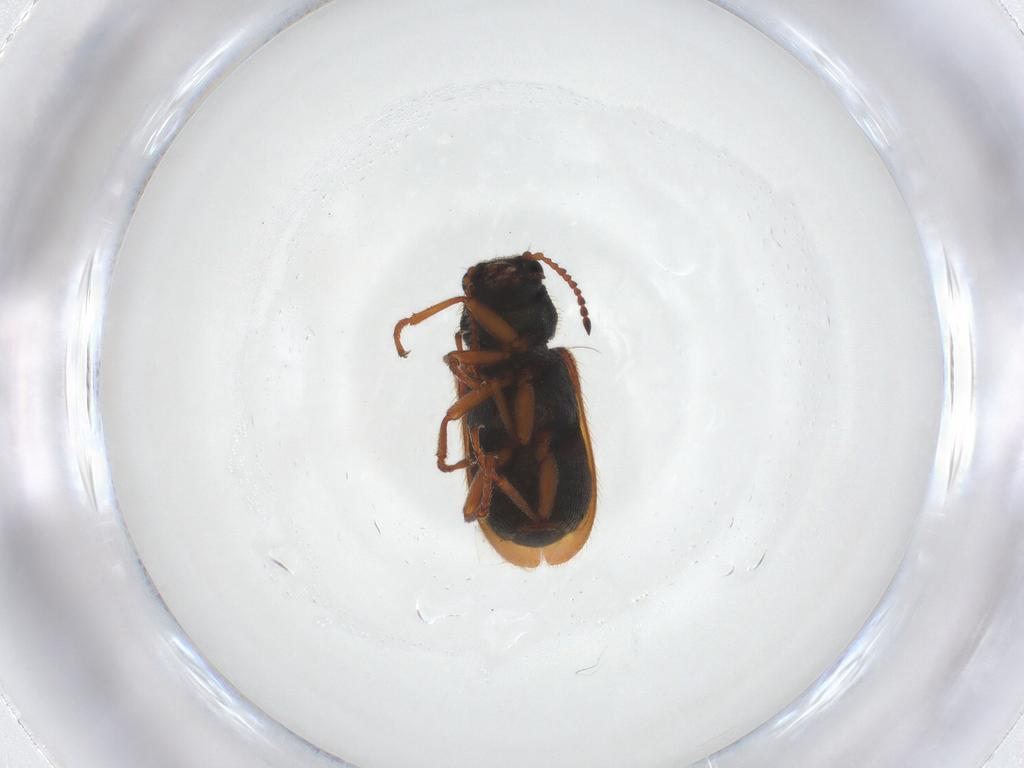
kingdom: Animalia
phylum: Arthropoda
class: Insecta
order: Coleoptera
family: Melyridae
